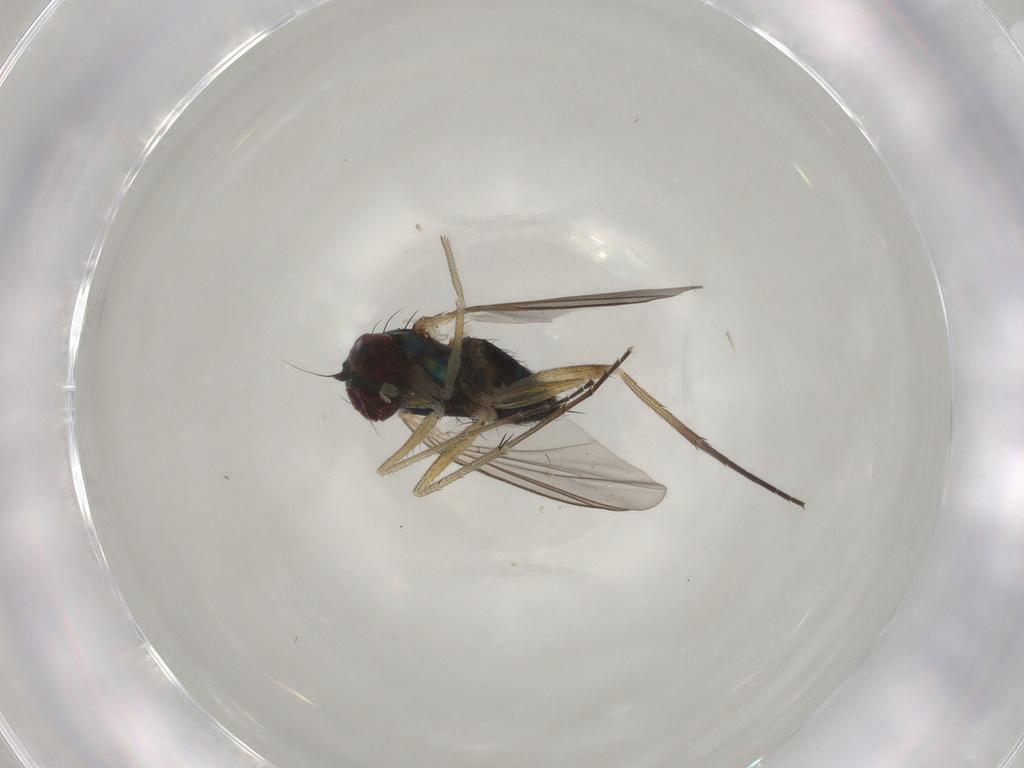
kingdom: Animalia
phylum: Arthropoda
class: Insecta
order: Diptera
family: Dolichopodidae
